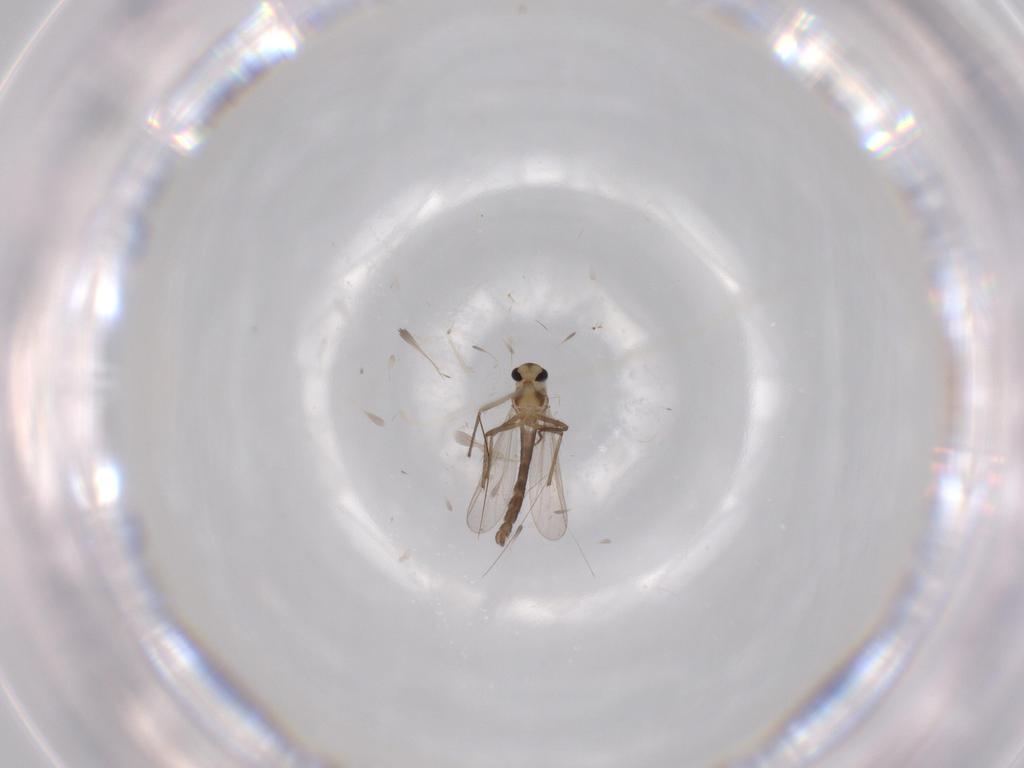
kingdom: Animalia
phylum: Arthropoda
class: Insecta
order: Diptera
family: Chironomidae
